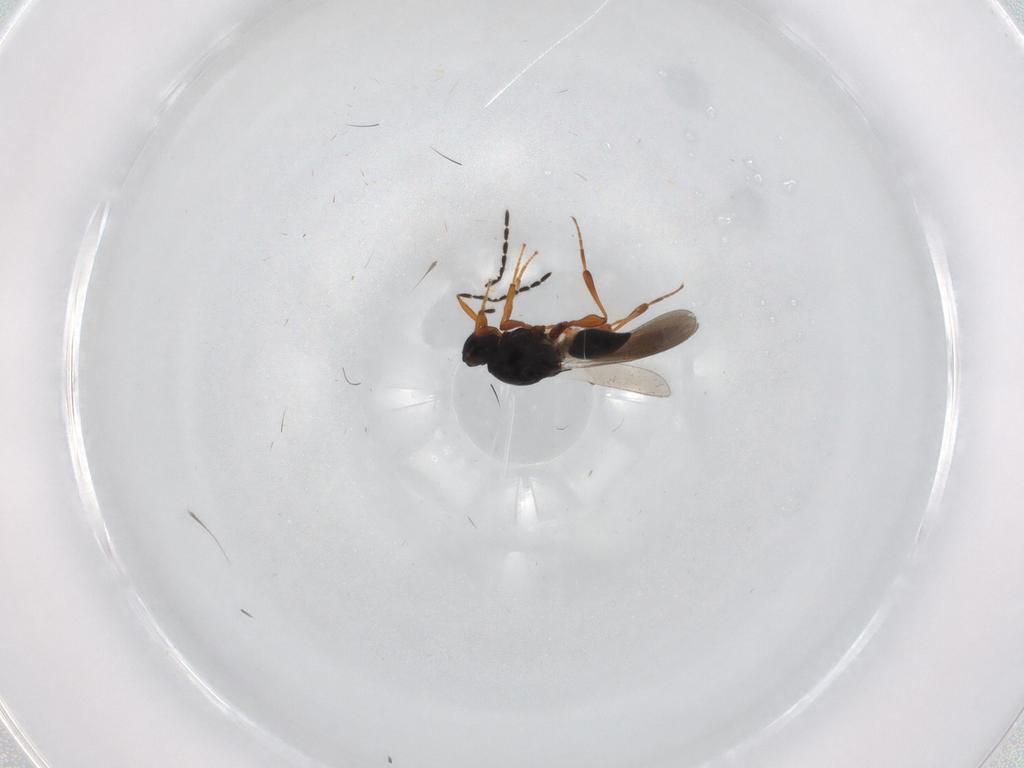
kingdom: Animalia
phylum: Arthropoda
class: Insecta
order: Hymenoptera
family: Platygastridae
